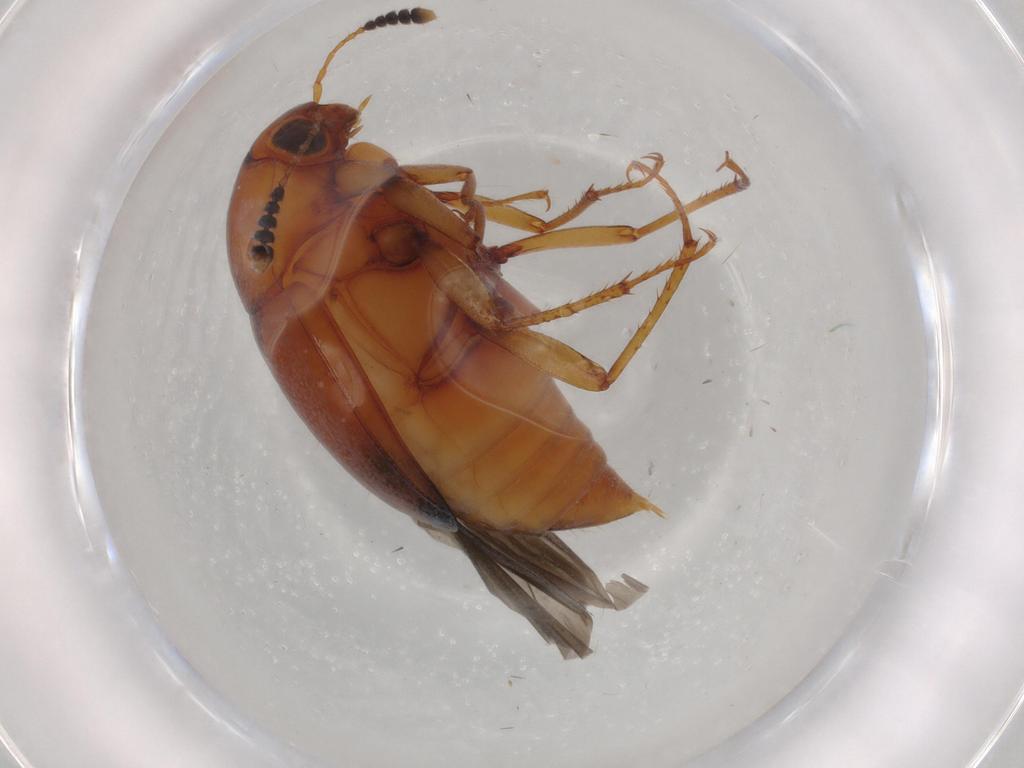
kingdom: Animalia
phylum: Arthropoda
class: Insecta
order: Coleoptera
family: Staphylinidae
